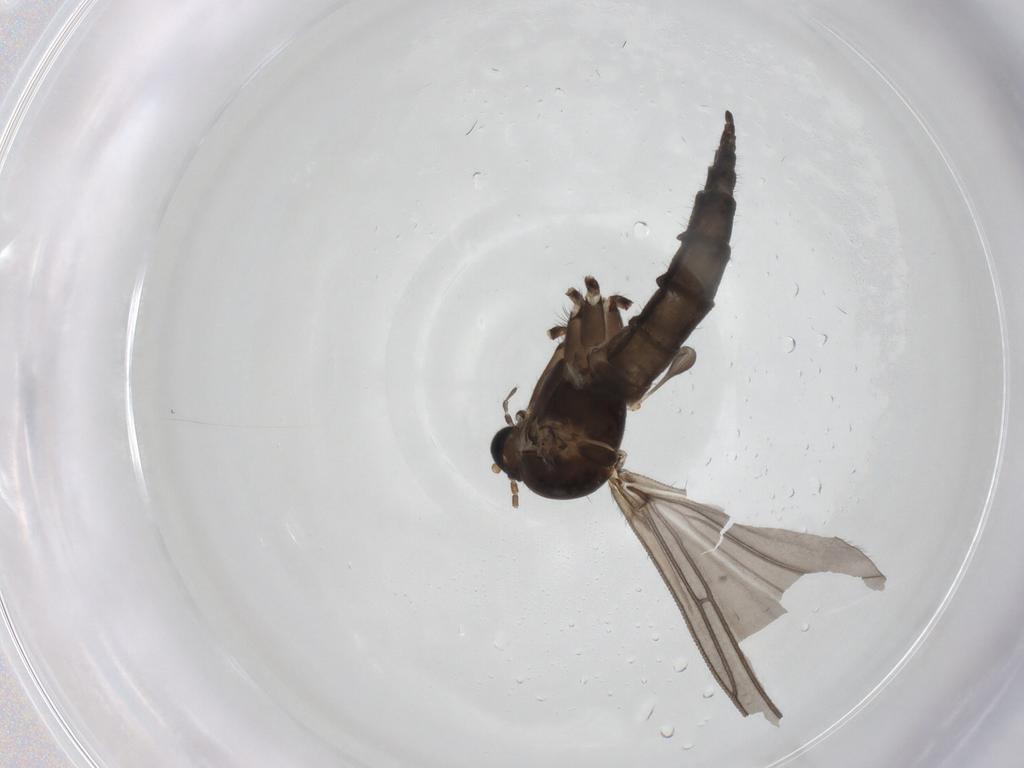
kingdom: Animalia
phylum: Arthropoda
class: Insecta
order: Diptera
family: Sciaridae
